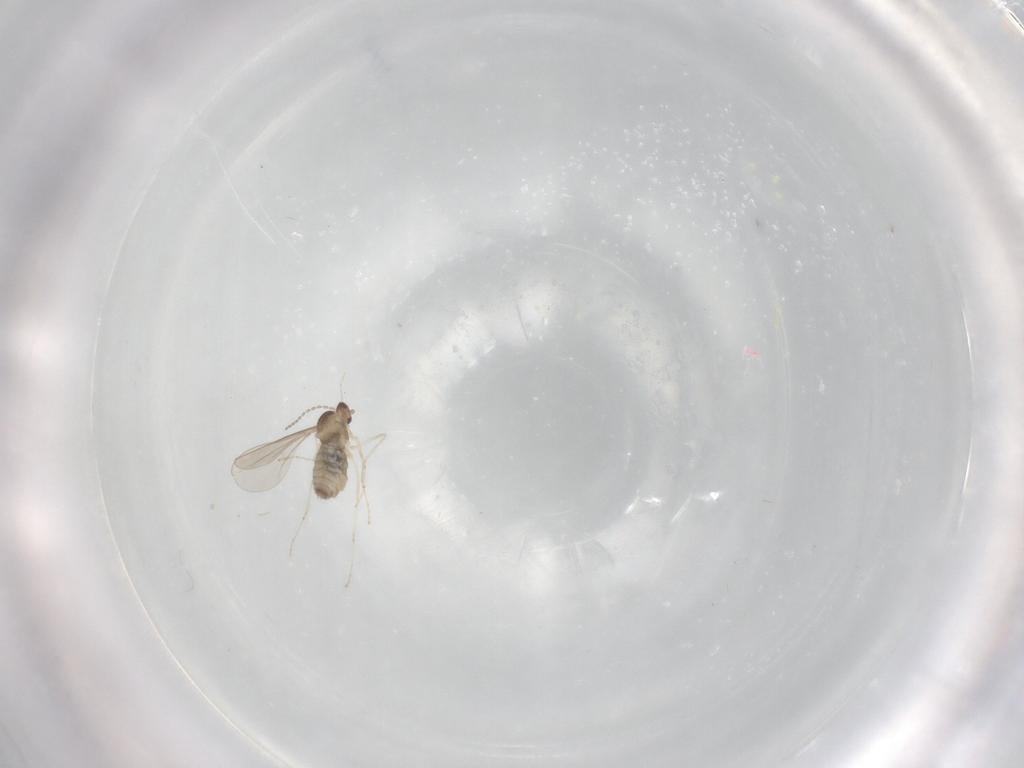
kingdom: Animalia
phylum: Arthropoda
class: Insecta
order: Diptera
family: Cecidomyiidae
